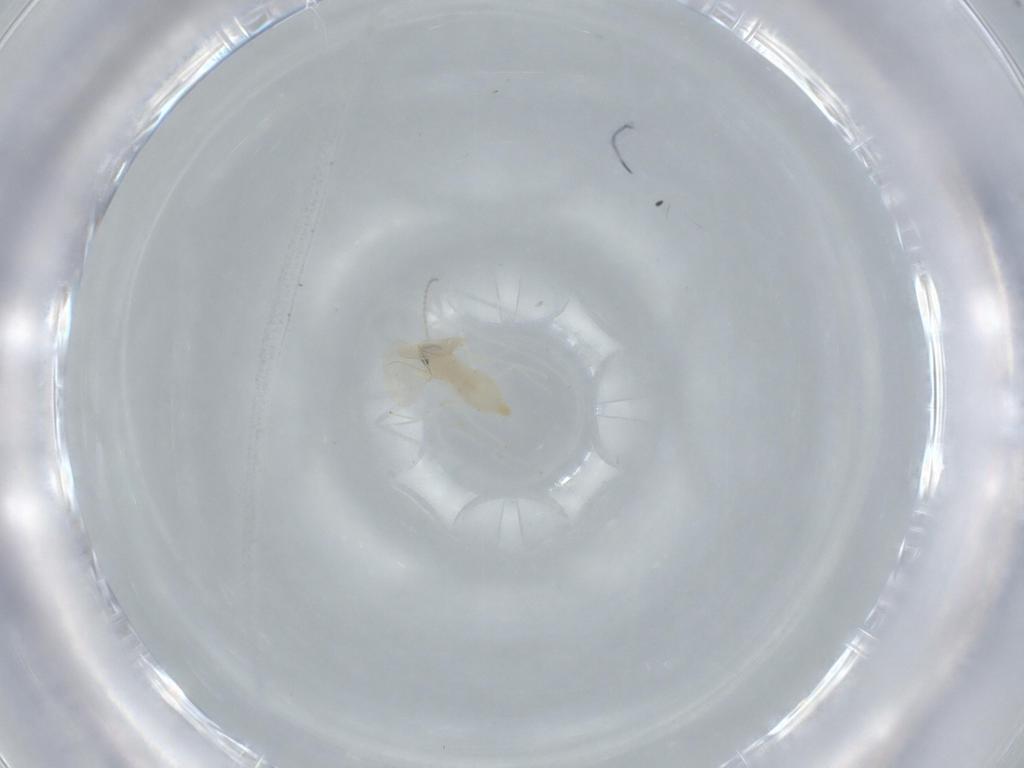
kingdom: Animalia
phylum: Arthropoda
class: Insecta
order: Diptera
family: Cecidomyiidae
